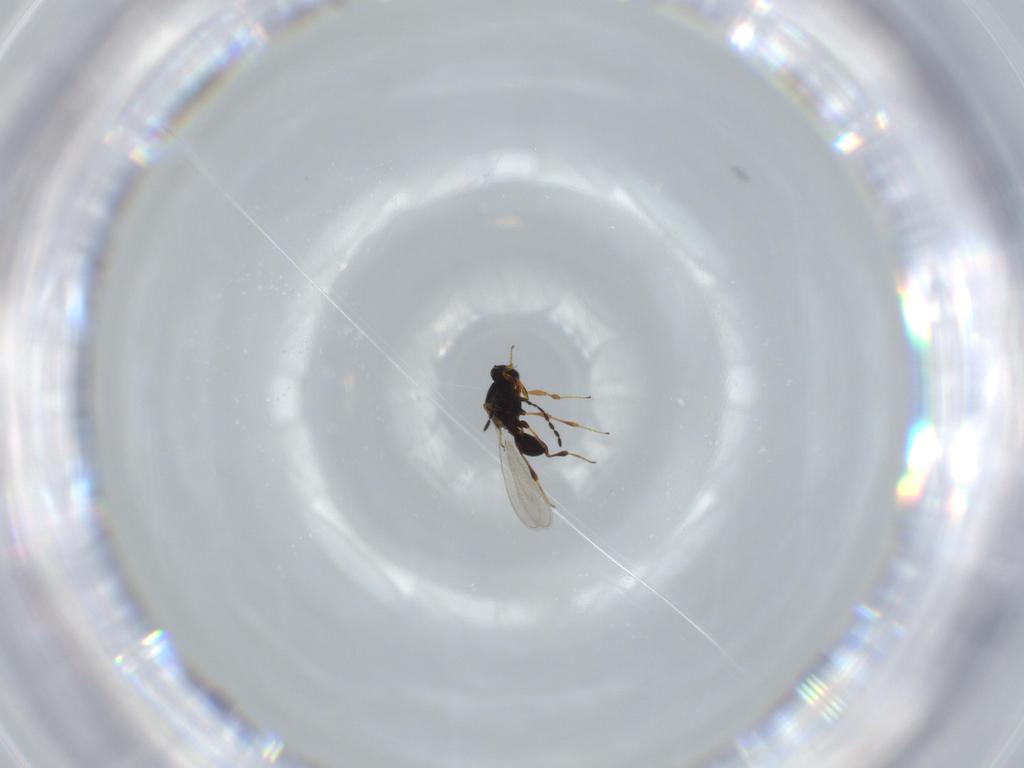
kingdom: Animalia
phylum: Arthropoda
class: Insecta
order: Hymenoptera
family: Platygastridae
